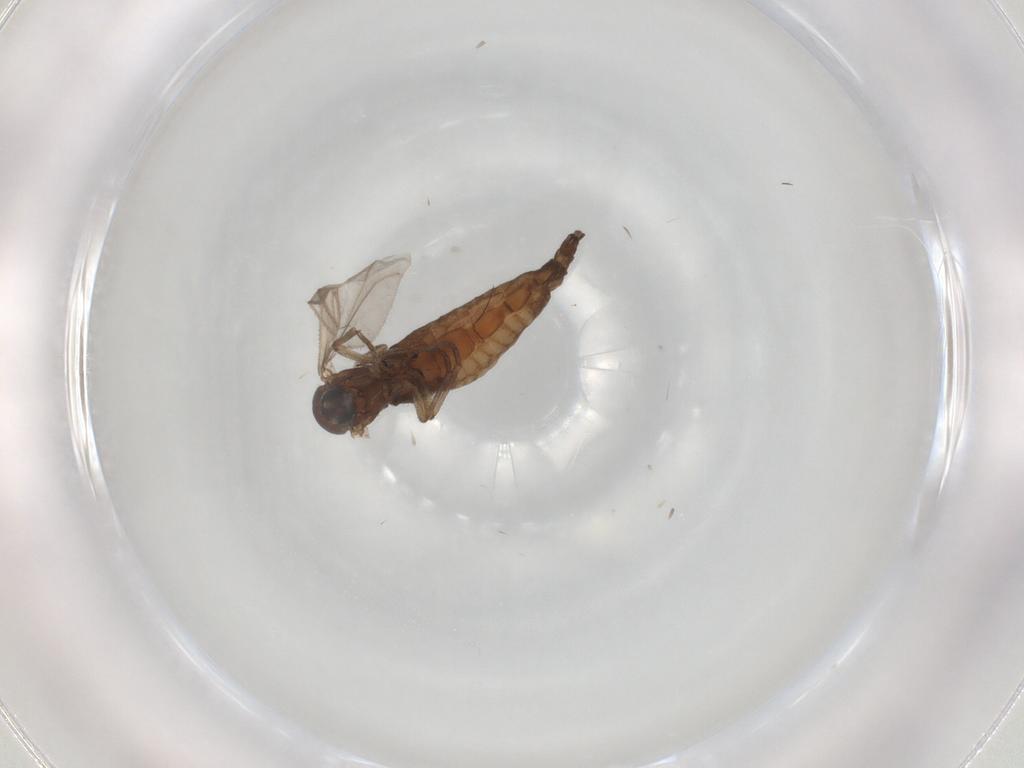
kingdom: Animalia
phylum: Arthropoda
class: Insecta
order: Diptera
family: Sciaridae
